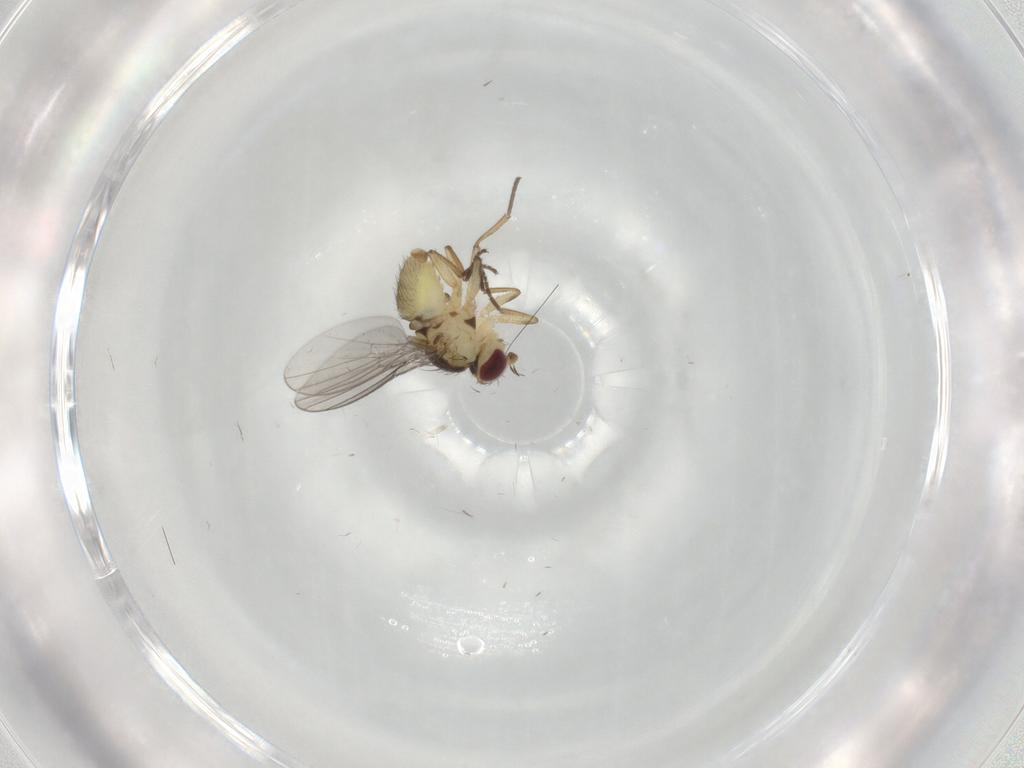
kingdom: Animalia
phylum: Arthropoda
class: Insecta
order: Diptera
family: Agromyzidae
